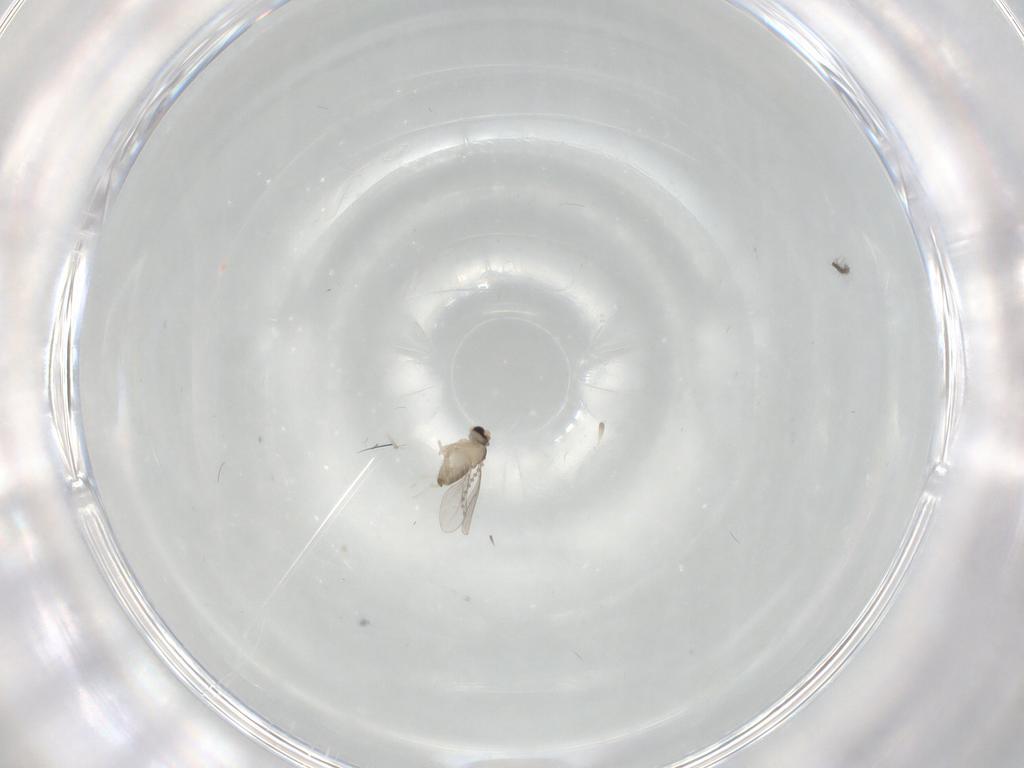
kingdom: Animalia
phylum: Arthropoda
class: Insecta
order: Diptera
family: Cecidomyiidae
